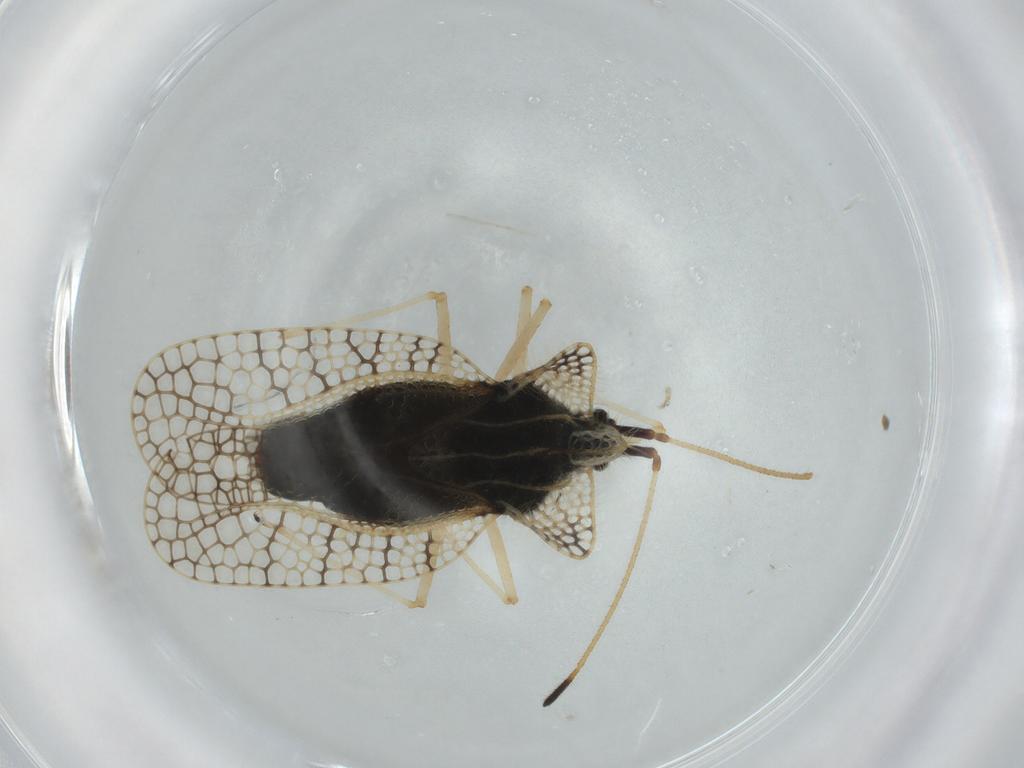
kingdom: Animalia
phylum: Arthropoda
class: Insecta
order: Hemiptera
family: Tingidae
